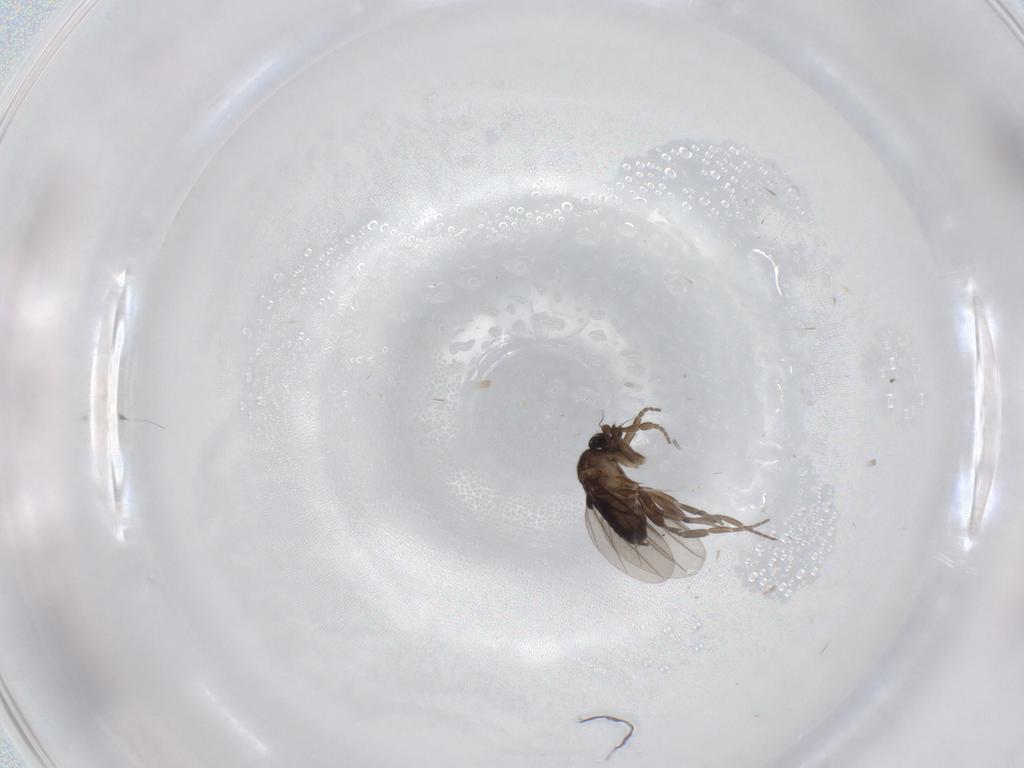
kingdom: Animalia
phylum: Arthropoda
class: Insecta
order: Diptera
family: Phoridae
